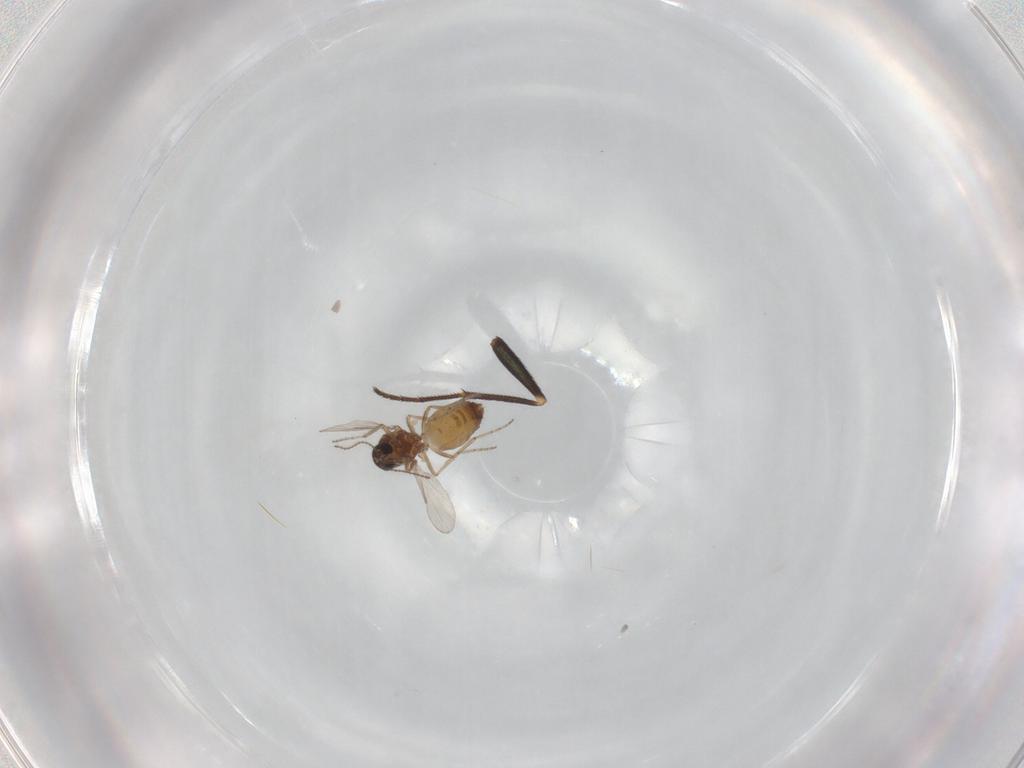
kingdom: Animalia
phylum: Arthropoda
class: Insecta
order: Diptera
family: Ceratopogonidae
